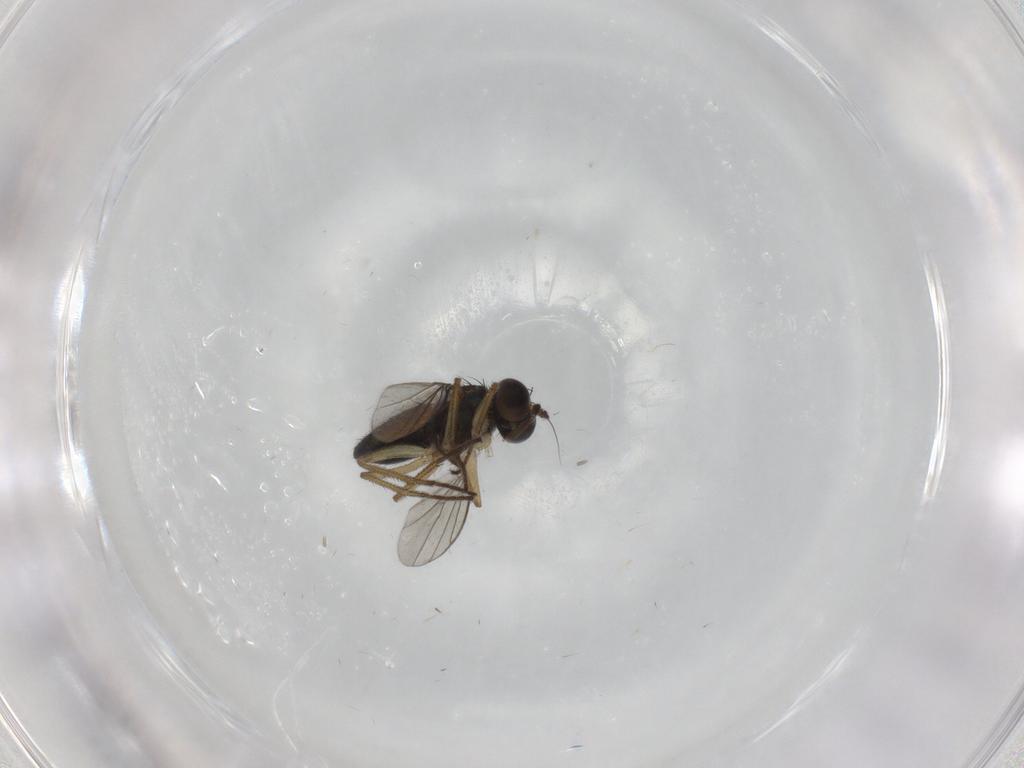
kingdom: Animalia
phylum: Arthropoda
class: Insecta
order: Diptera
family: Dolichopodidae
